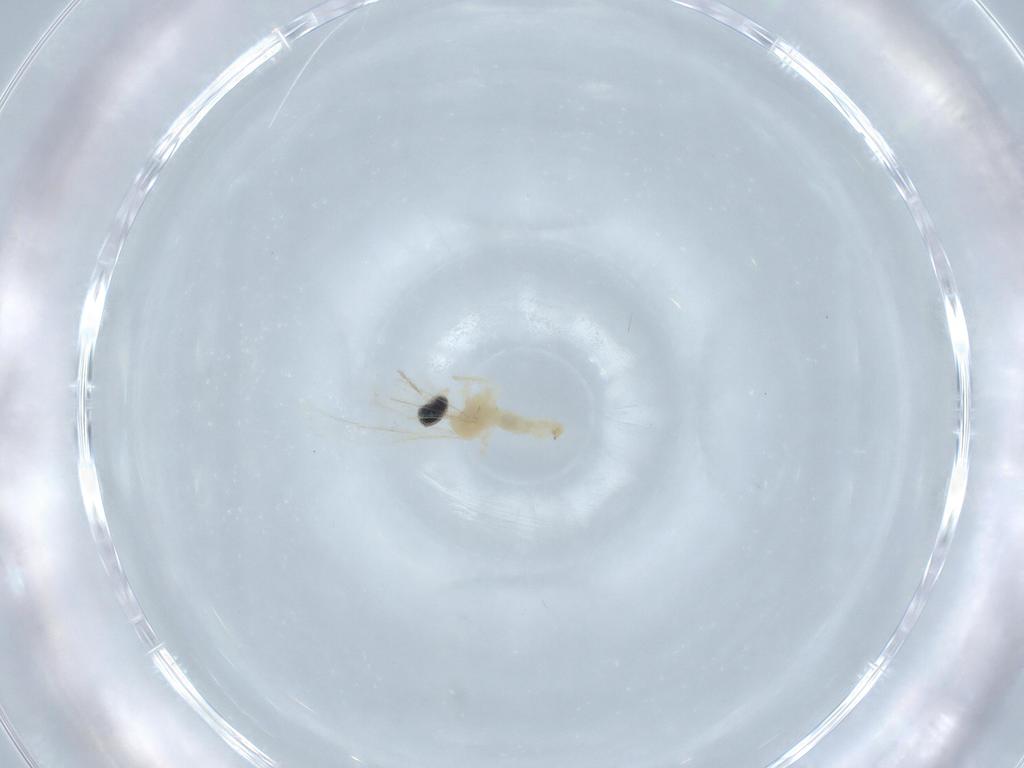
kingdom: Animalia
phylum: Arthropoda
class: Insecta
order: Diptera
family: Cecidomyiidae
